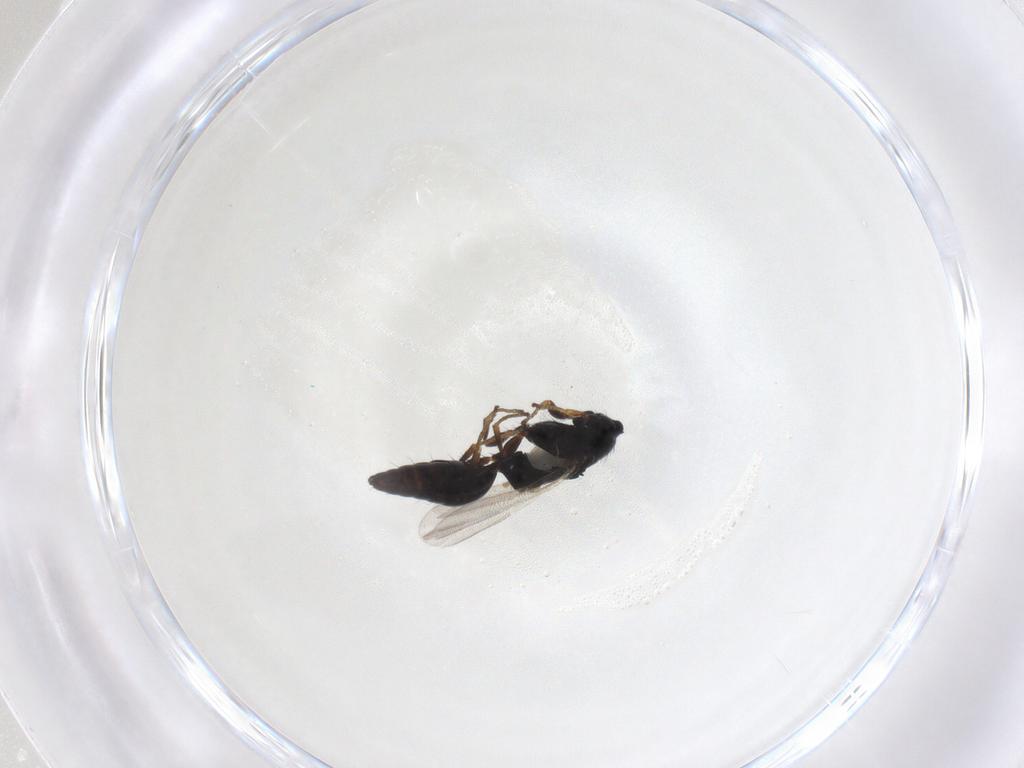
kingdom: Animalia
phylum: Arthropoda
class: Insecta
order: Hymenoptera
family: Bethylidae
